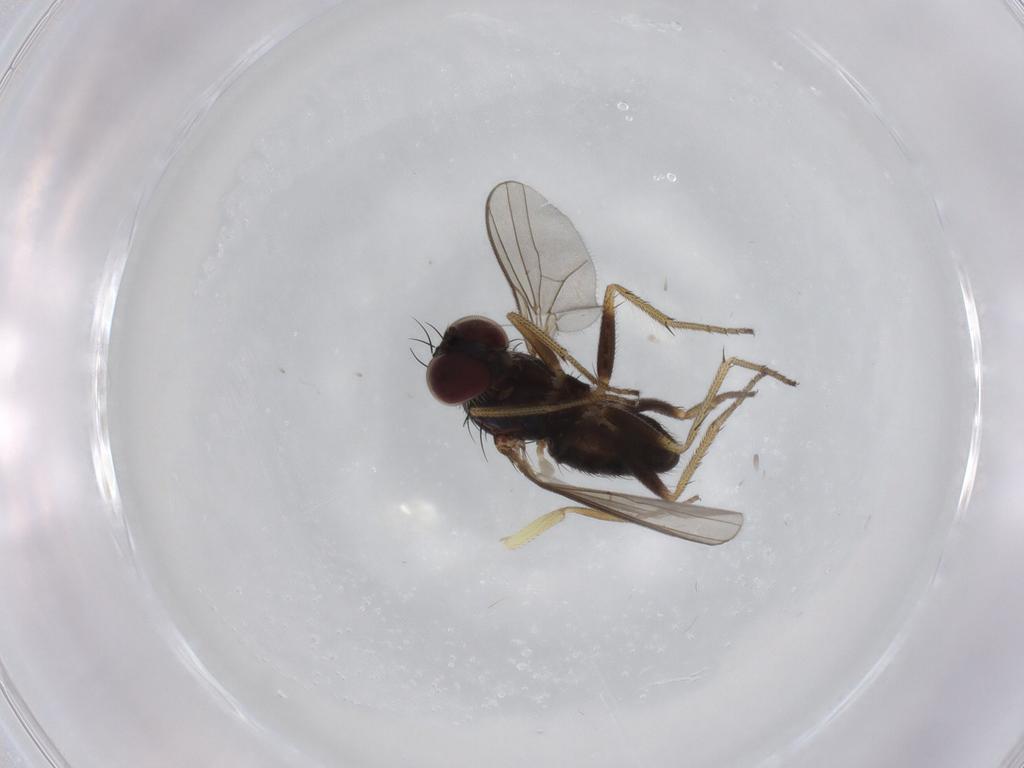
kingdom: Animalia
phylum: Arthropoda
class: Insecta
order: Diptera
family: Agromyzidae
